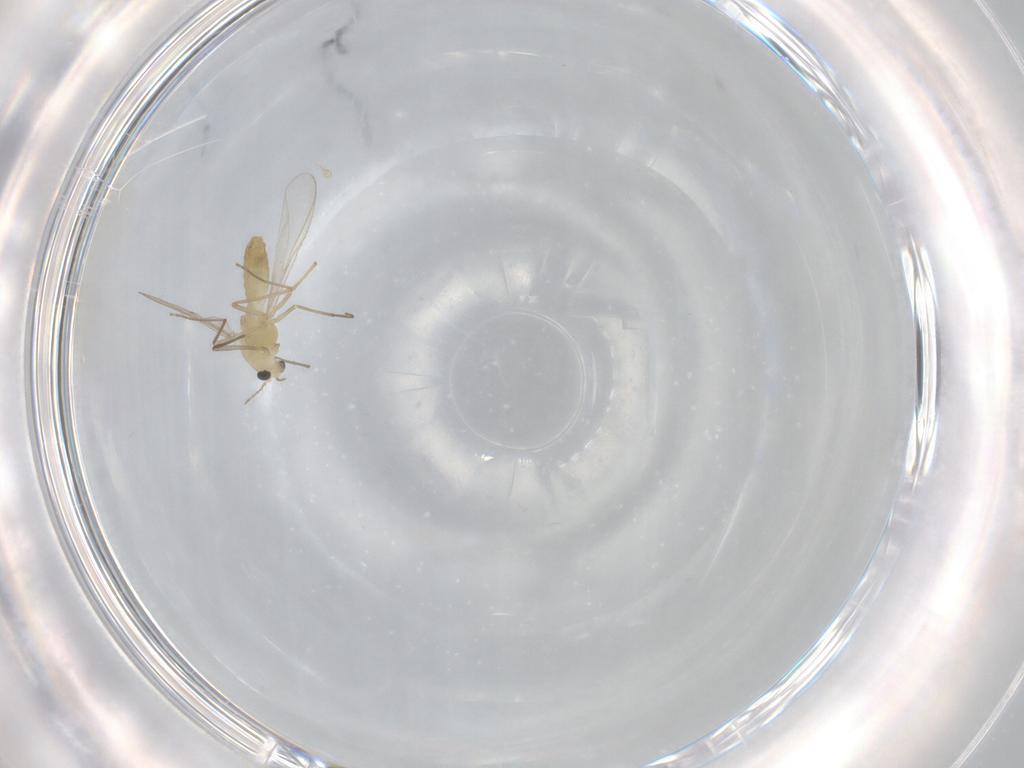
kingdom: Animalia
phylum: Arthropoda
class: Insecta
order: Diptera
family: Chironomidae
